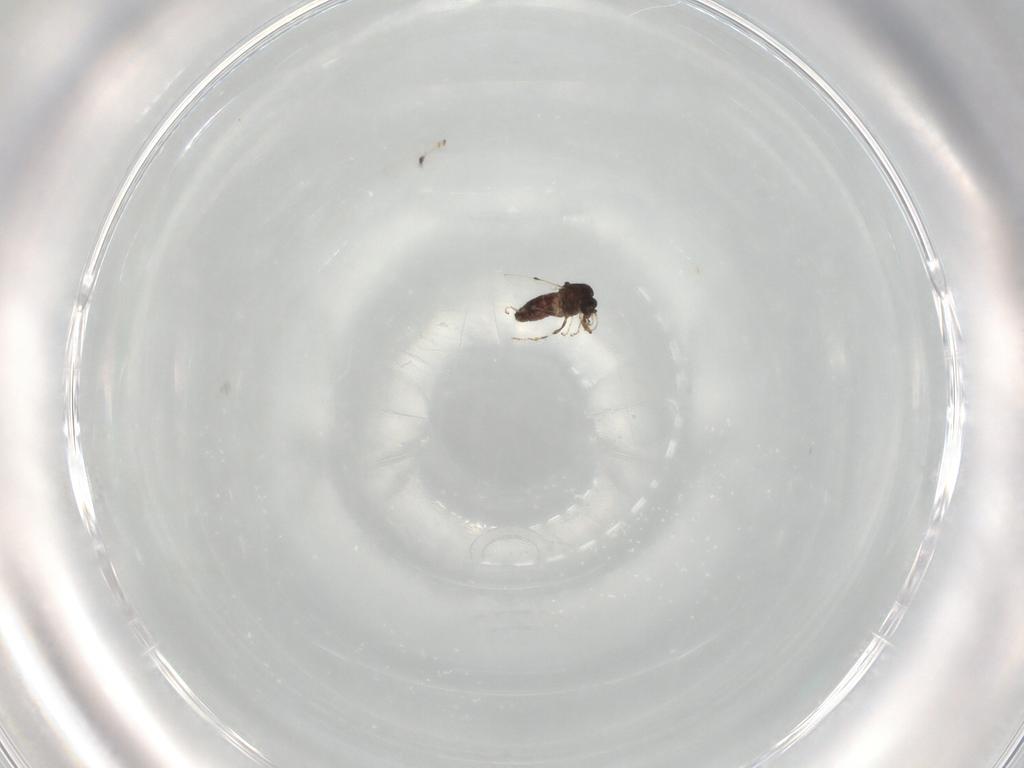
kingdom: Animalia
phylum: Arthropoda
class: Insecta
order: Diptera
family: Ceratopogonidae
